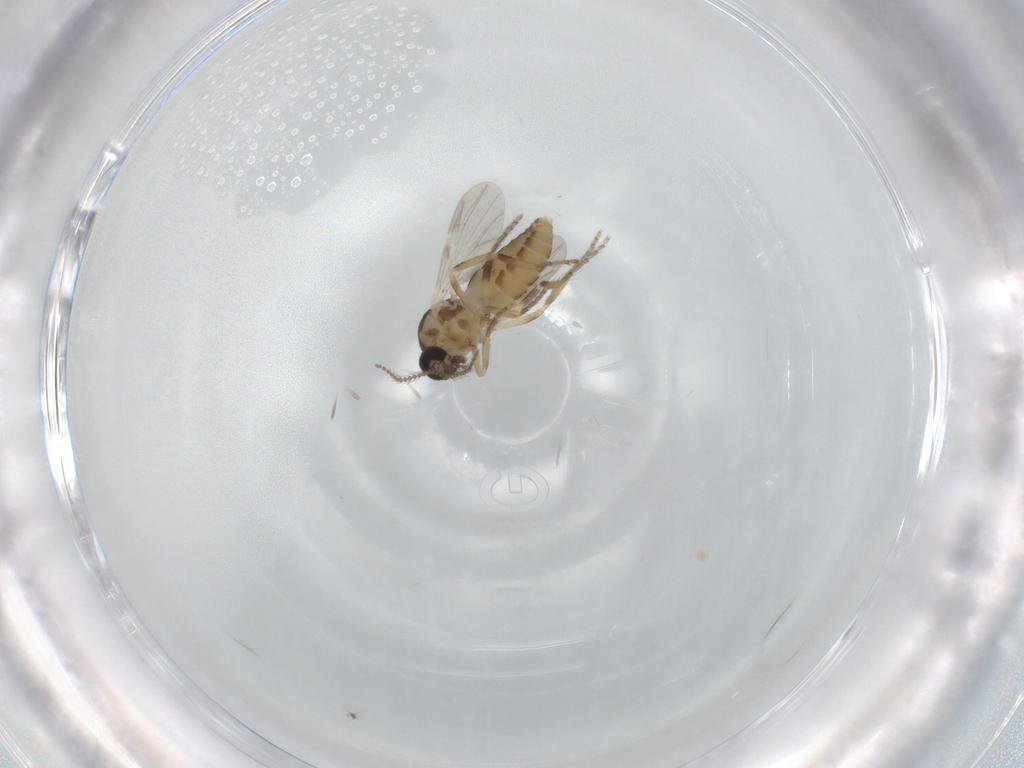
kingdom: Animalia
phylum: Arthropoda
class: Insecta
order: Diptera
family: Ceratopogonidae
